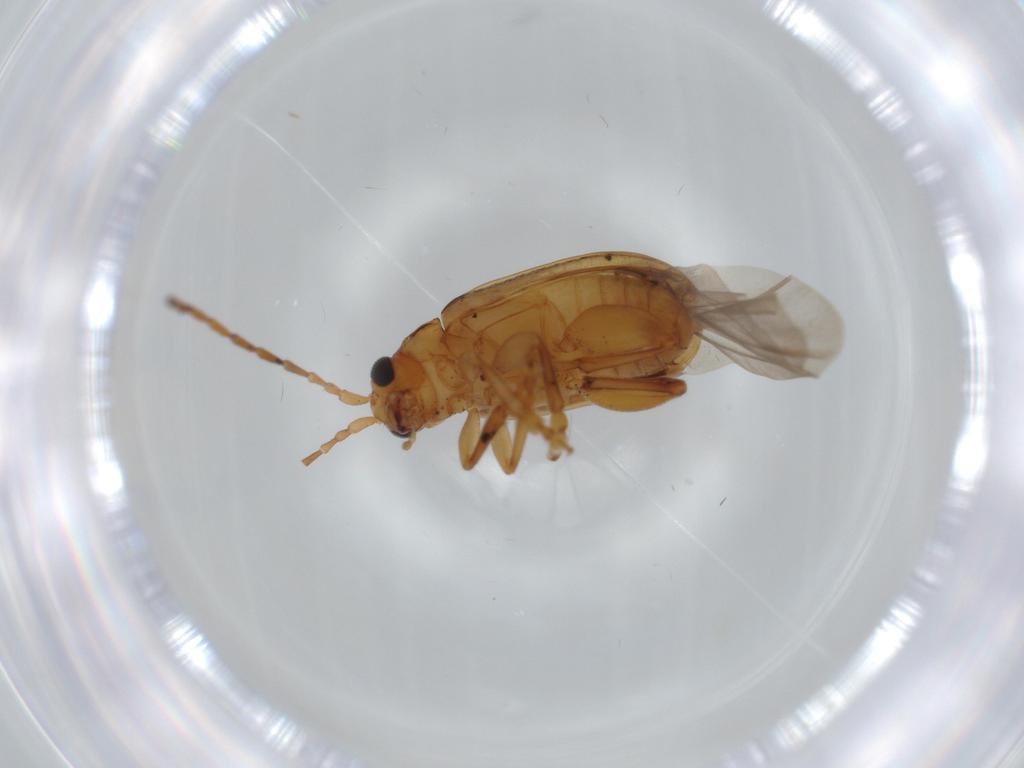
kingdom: Animalia
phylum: Arthropoda
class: Insecta
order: Coleoptera
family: Chrysomelidae
